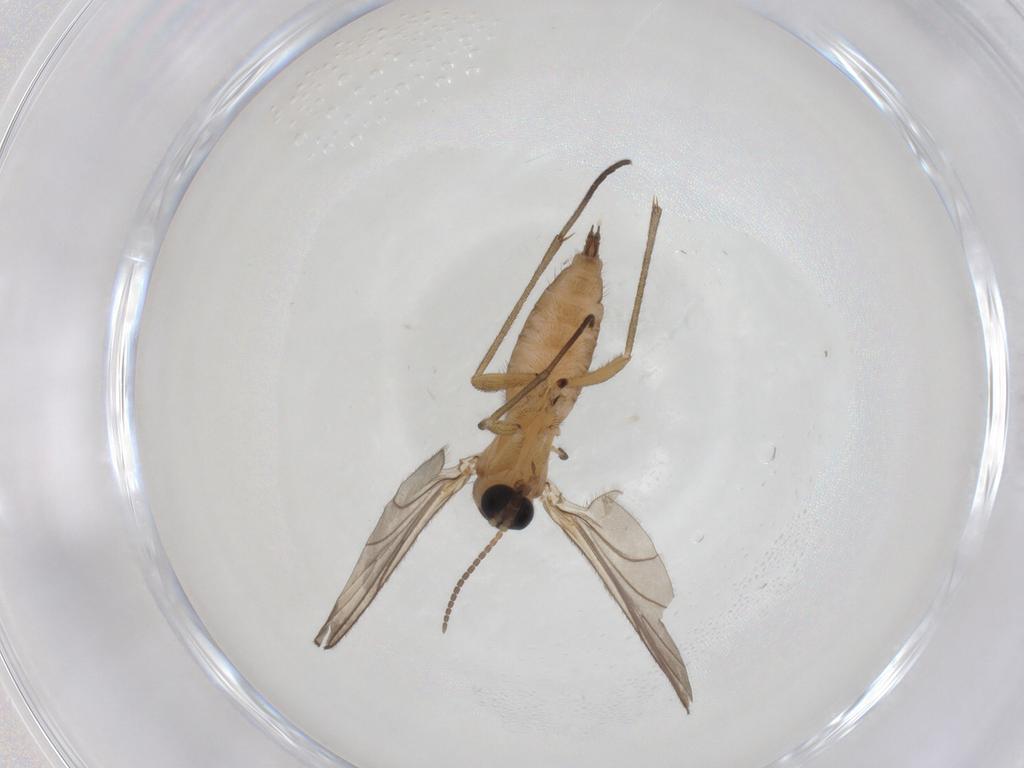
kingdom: Animalia
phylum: Arthropoda
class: Insecta
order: Diptera
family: Sciaridae
